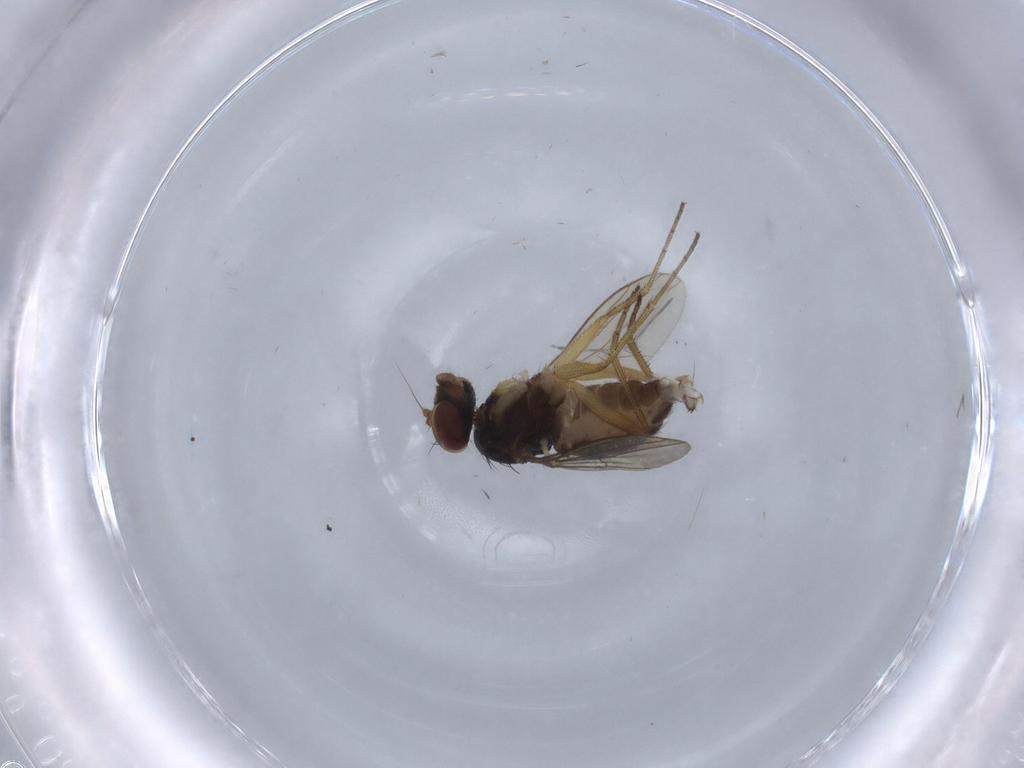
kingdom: Animalia
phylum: Arthropoda
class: Insecta
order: Diptera
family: Dolichopodidae
